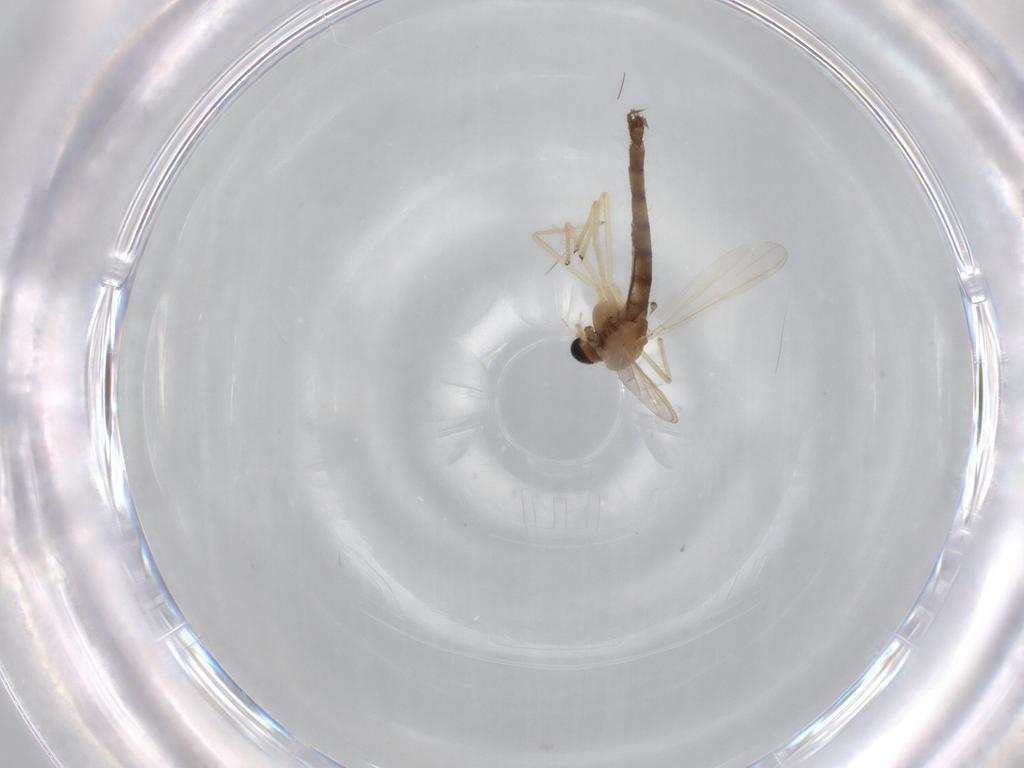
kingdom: Animalia
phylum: Arthropoda
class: Insecta
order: Diptera
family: Chironomidae
